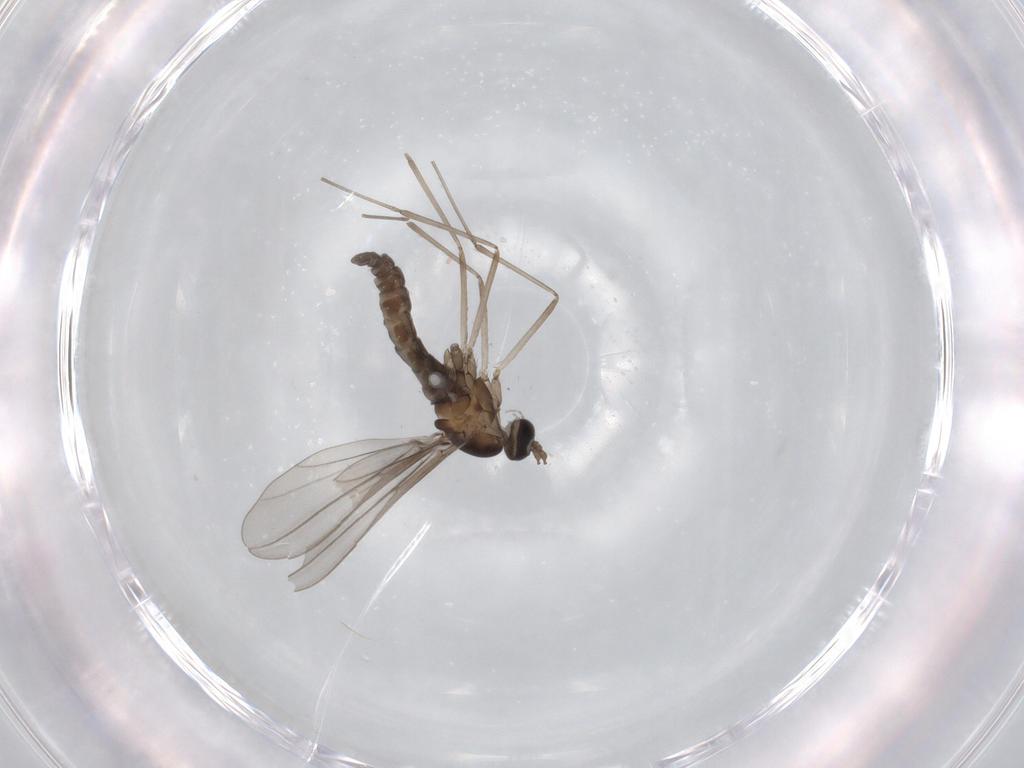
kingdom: Animalia
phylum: Arthropoda
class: Insecta
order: Diptera
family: Cecidomyiidae
